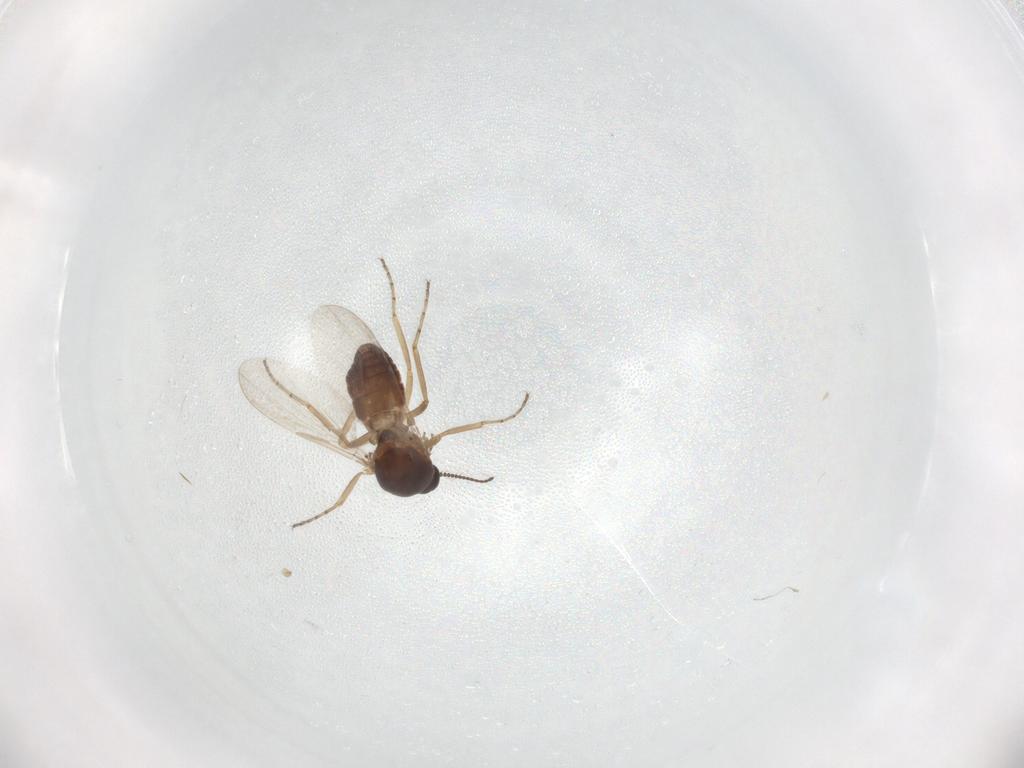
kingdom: Animalia
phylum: Arthropoda
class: Insecta
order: Diptera
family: Ceratopogonidae
